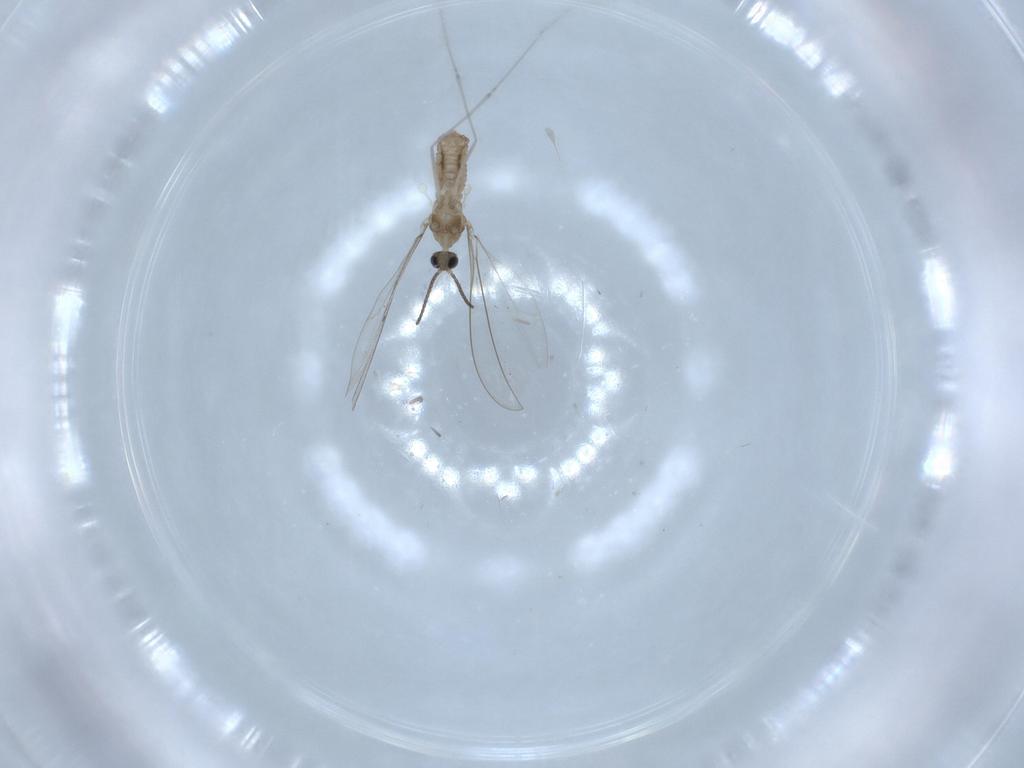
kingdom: Animalia
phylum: Arthropoda
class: Insecta
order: Diptera
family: Cecidomyiidae
